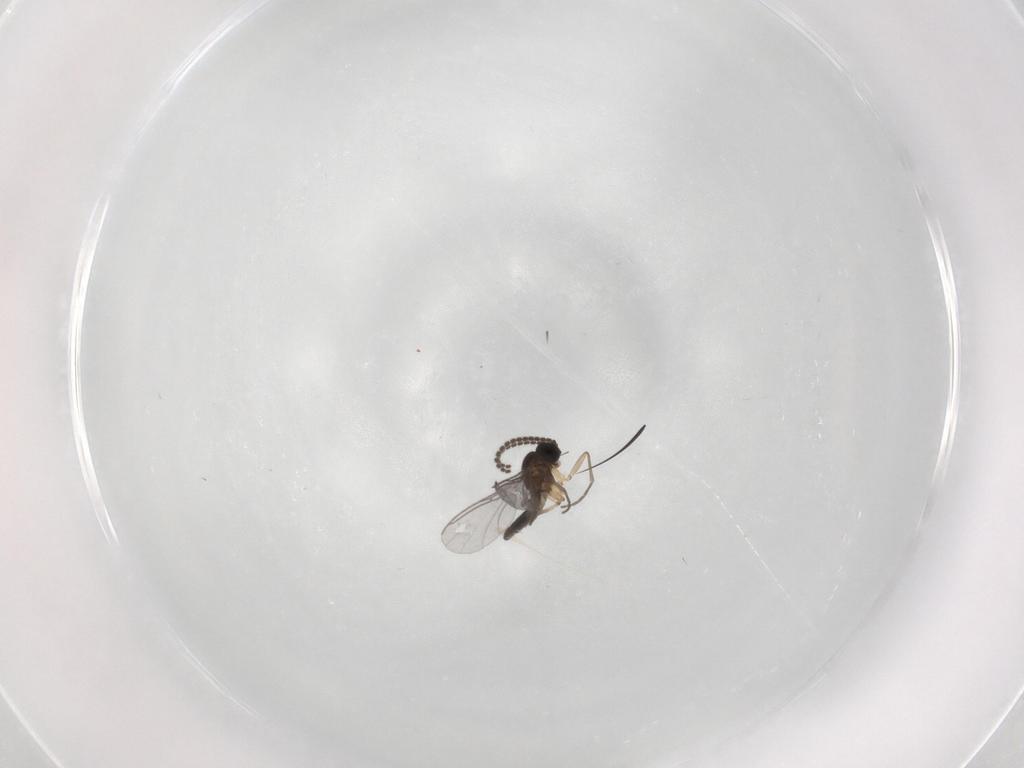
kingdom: Animalia
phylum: Arthropoda
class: Insecta
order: Diptera
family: Sciaridae
